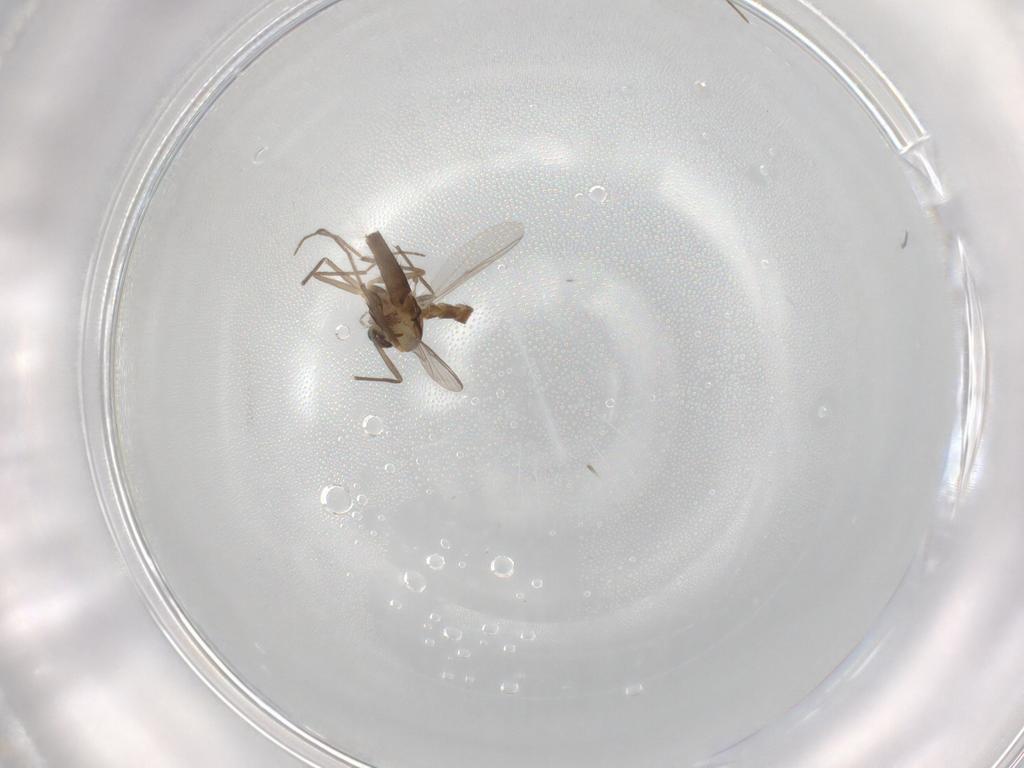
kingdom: Animalia
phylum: Arthropoda
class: Insecta
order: Diptera
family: Chironomidae
